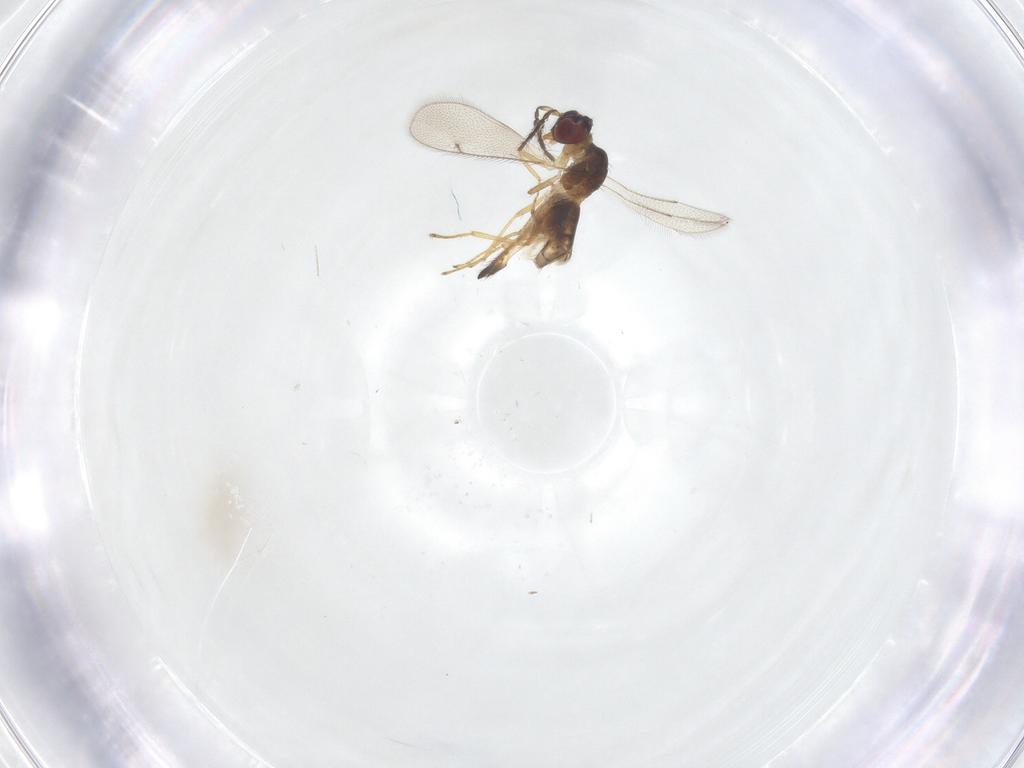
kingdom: Animalia
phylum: Arthropoda
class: Insecta
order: Hymenoptera
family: Eulophidae
